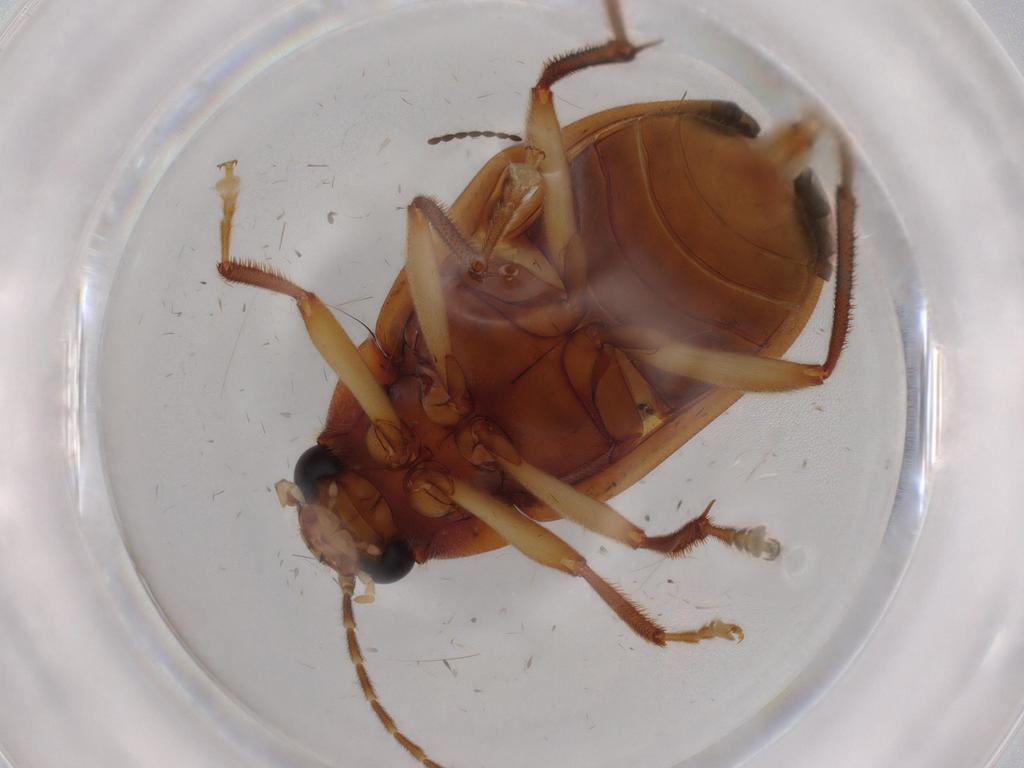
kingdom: Animalia
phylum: Arthropoda
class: Insecta
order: Coleoptera
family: Ptilodactylidae
